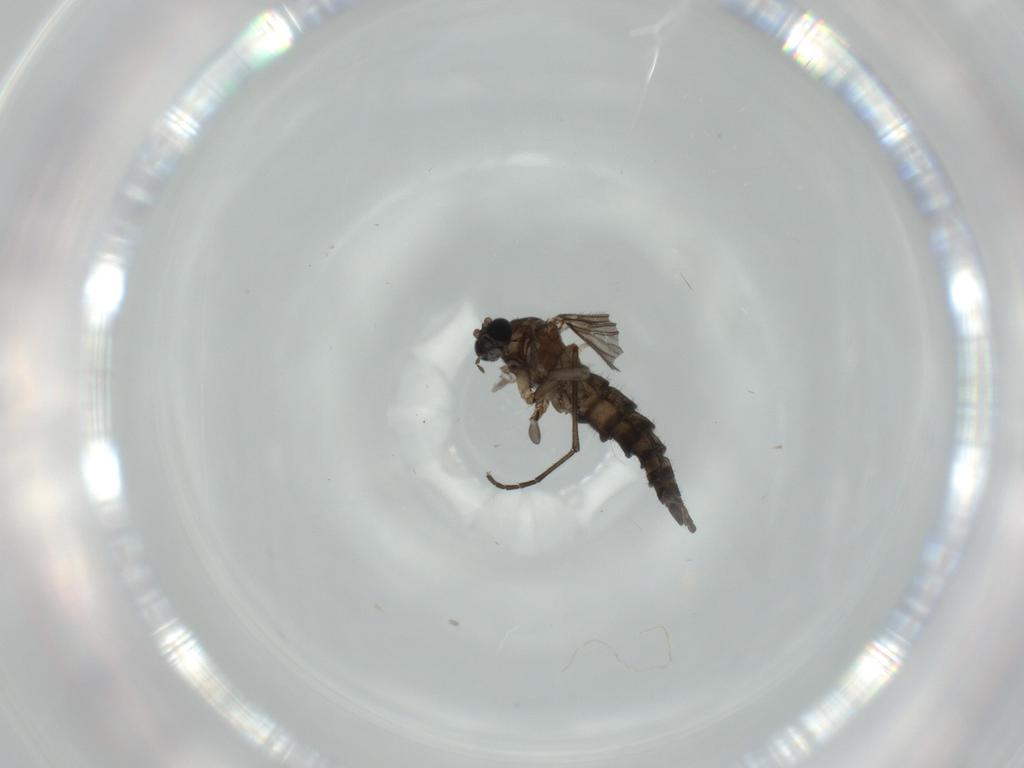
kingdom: Animalia
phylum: Arthropoda
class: Insecta
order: Diptera
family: Sciaridae
